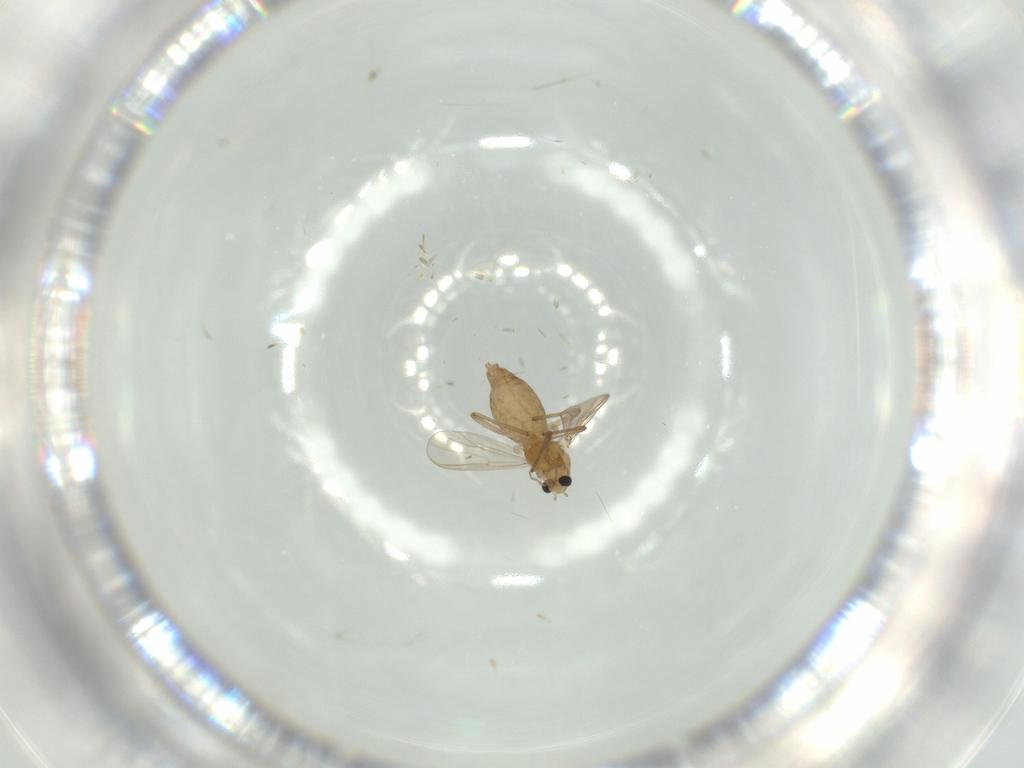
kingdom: Animalia
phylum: Arthropoda
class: Insecta
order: Diptera
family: Chironomidae
